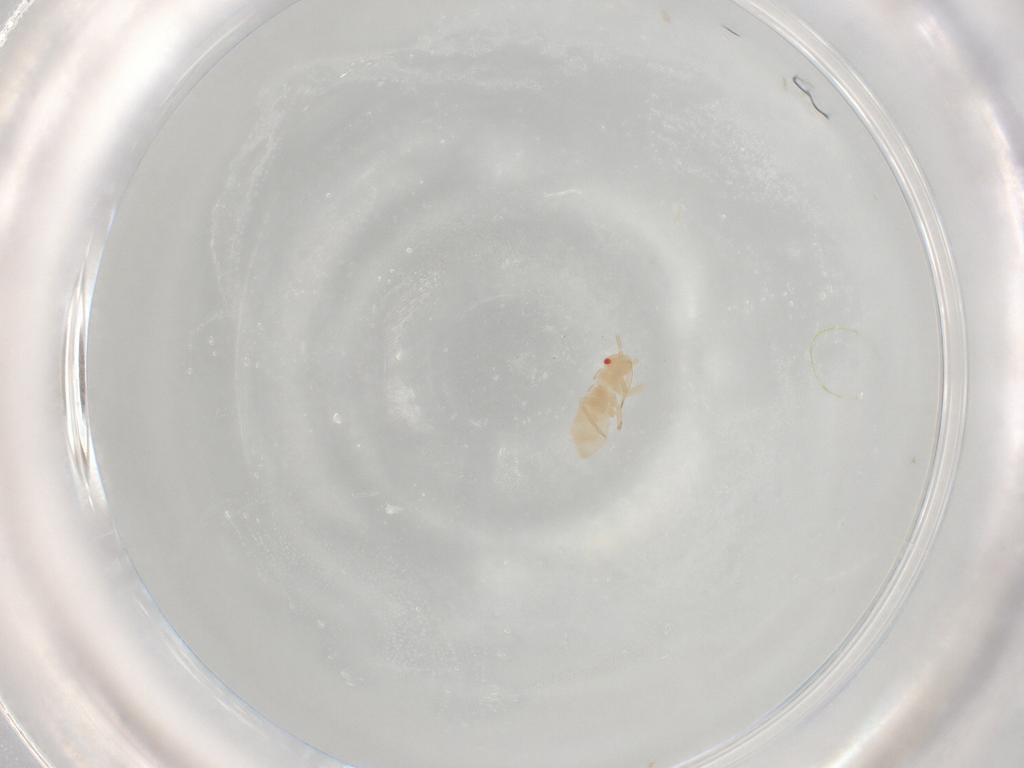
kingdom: Animalia
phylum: Arthropoda
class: Insecta
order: Hemiptera
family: Miridae
